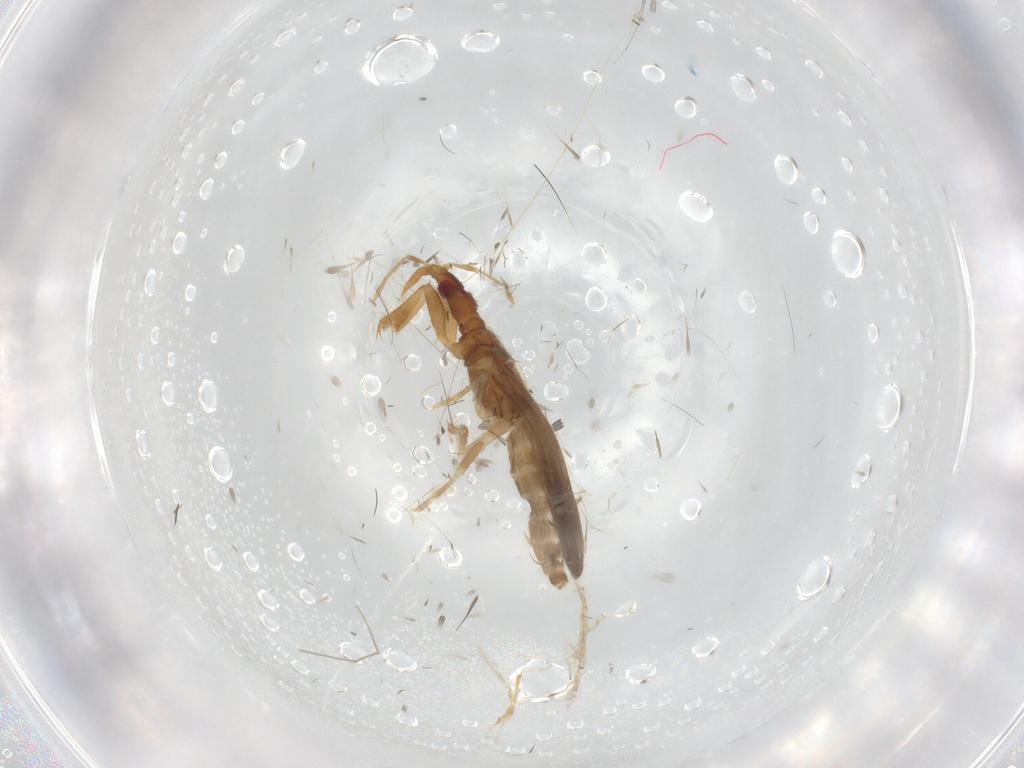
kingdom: Animalia
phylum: Arthropoda
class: Insecta
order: Hemiptera
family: Enicocephalidae
